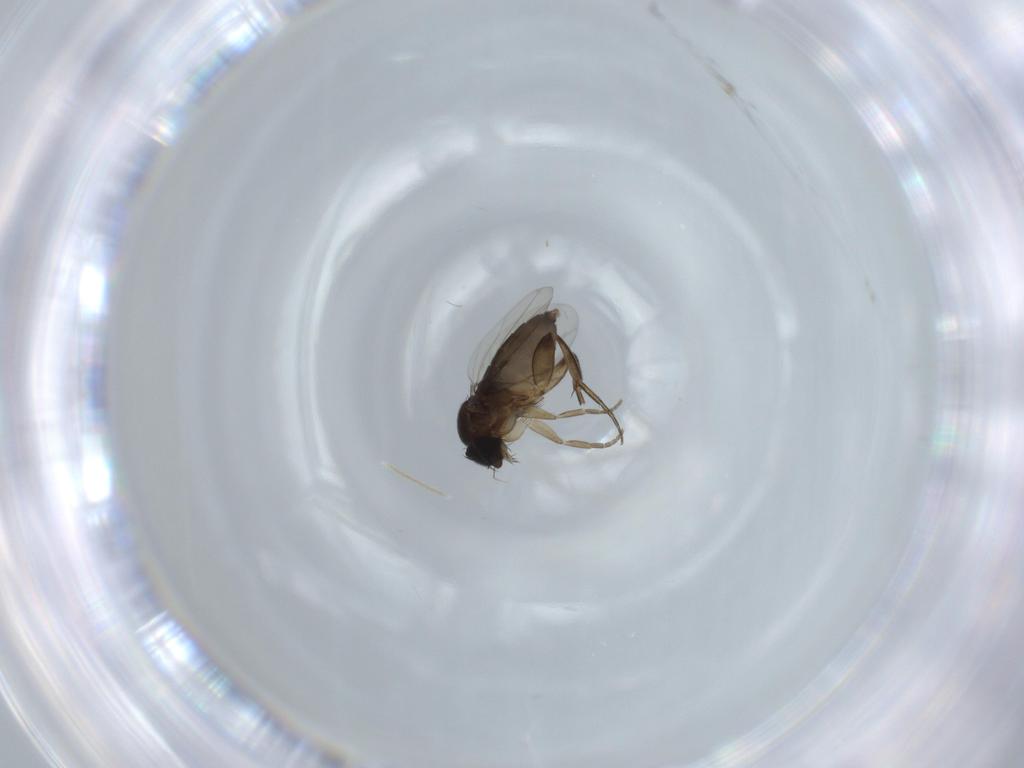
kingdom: Animalia
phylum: Arthropoda
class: Insecta
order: Diptera
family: Phoridae
